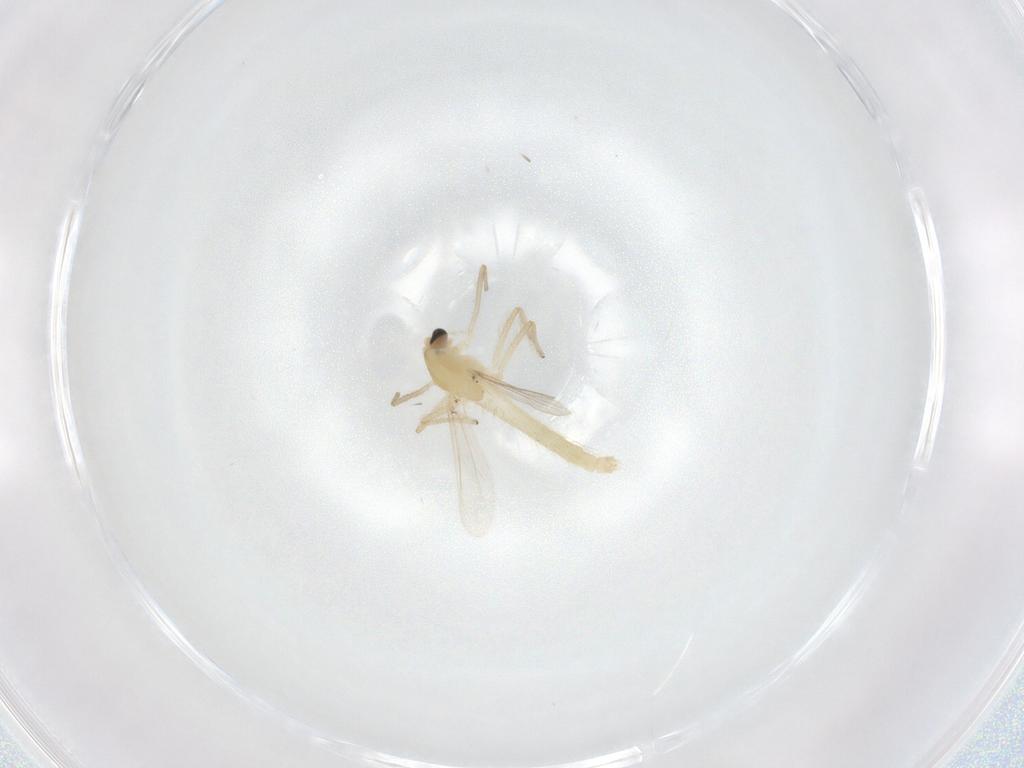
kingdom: Animalia
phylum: Arthropoda
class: Insecta
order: Diptera
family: Chironomidae
